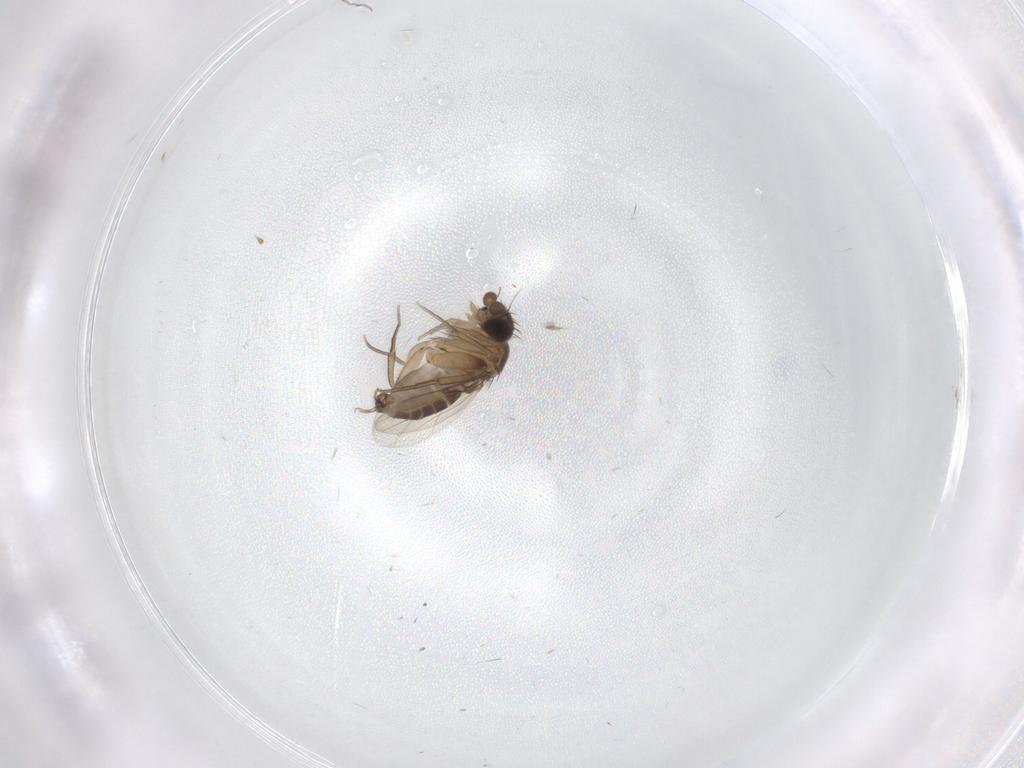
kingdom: Animalia
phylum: Arthropoda
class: Insecta
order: Diptera
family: Phoridae
